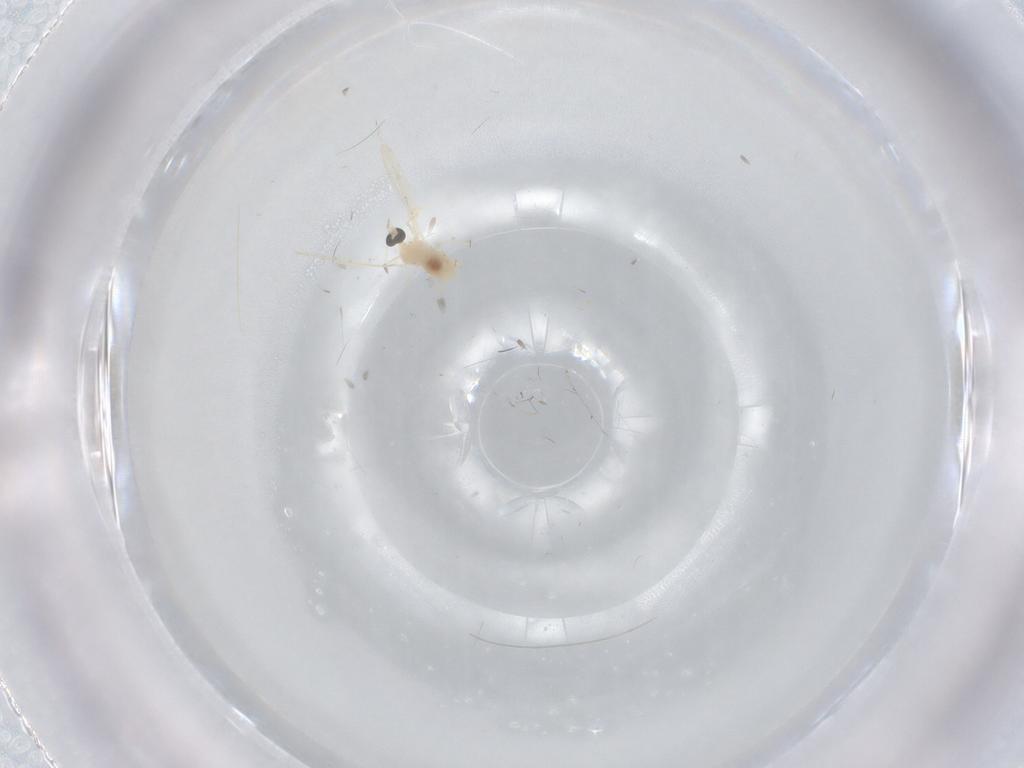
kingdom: Animalia
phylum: Arthropoda
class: Insecta
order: Diptera
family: Cecidomyiidae
